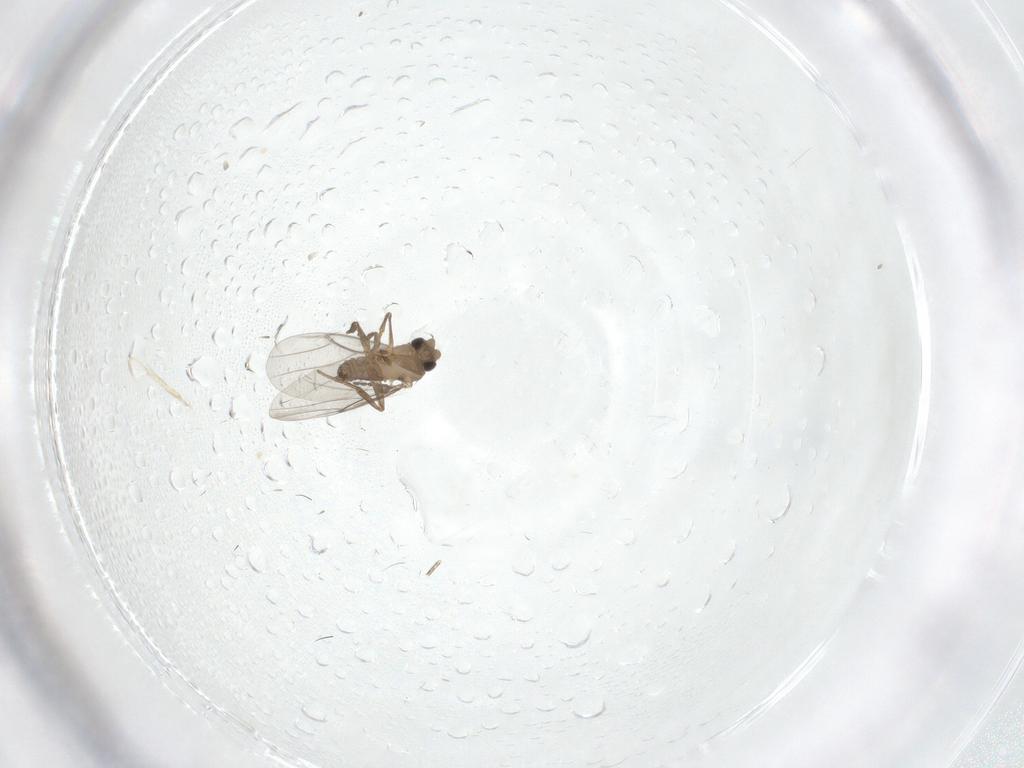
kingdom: Animalia
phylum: Arthropoda
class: Insecta
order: Diptera
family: Ceratopogonidae
